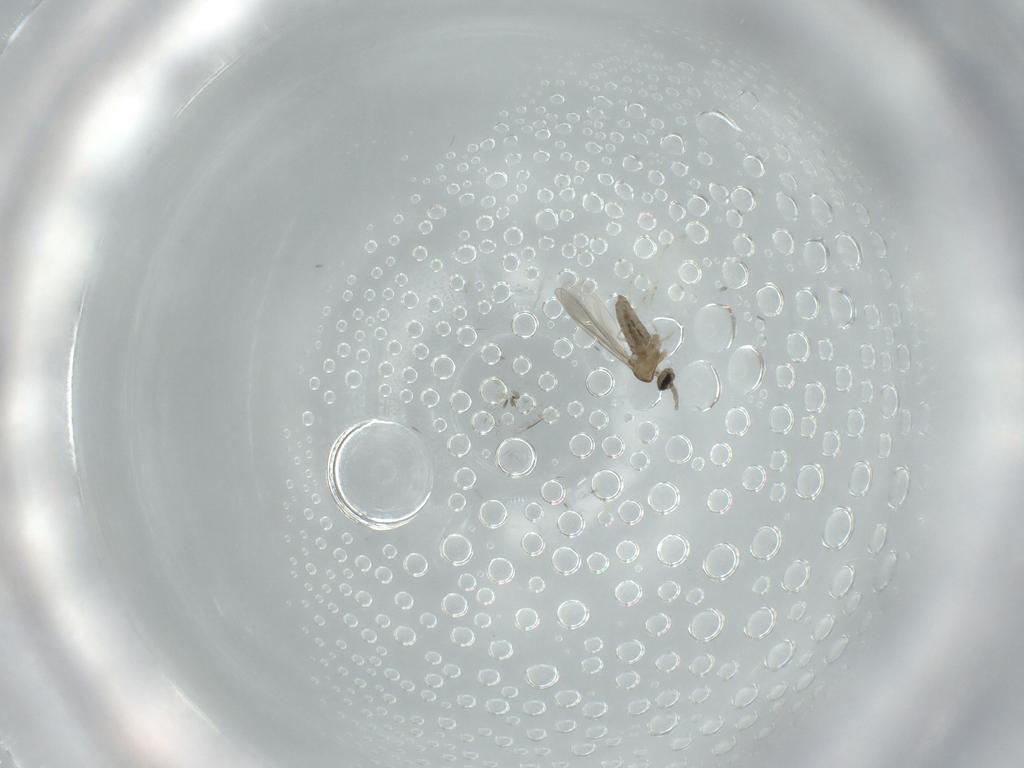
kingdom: Animalia
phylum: Arthropoda
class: Insecta
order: Diptera
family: Cecidomyiidae
